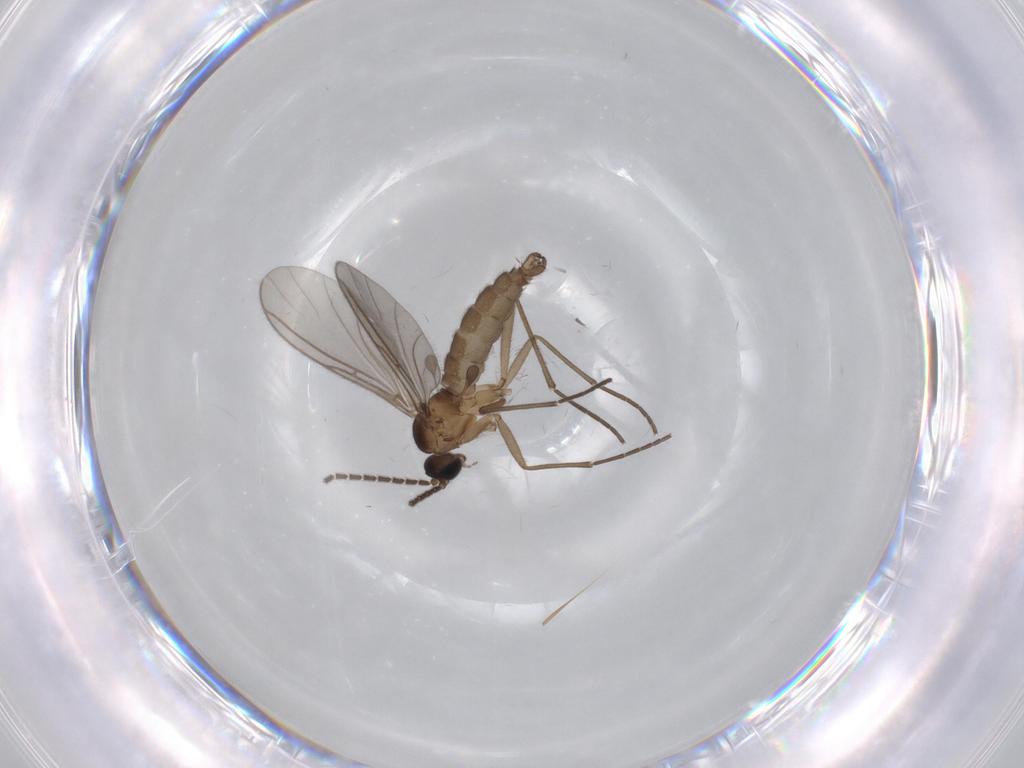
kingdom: Animalia
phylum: Arthropoda
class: Insecta
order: Diptera
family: Sciaridae
